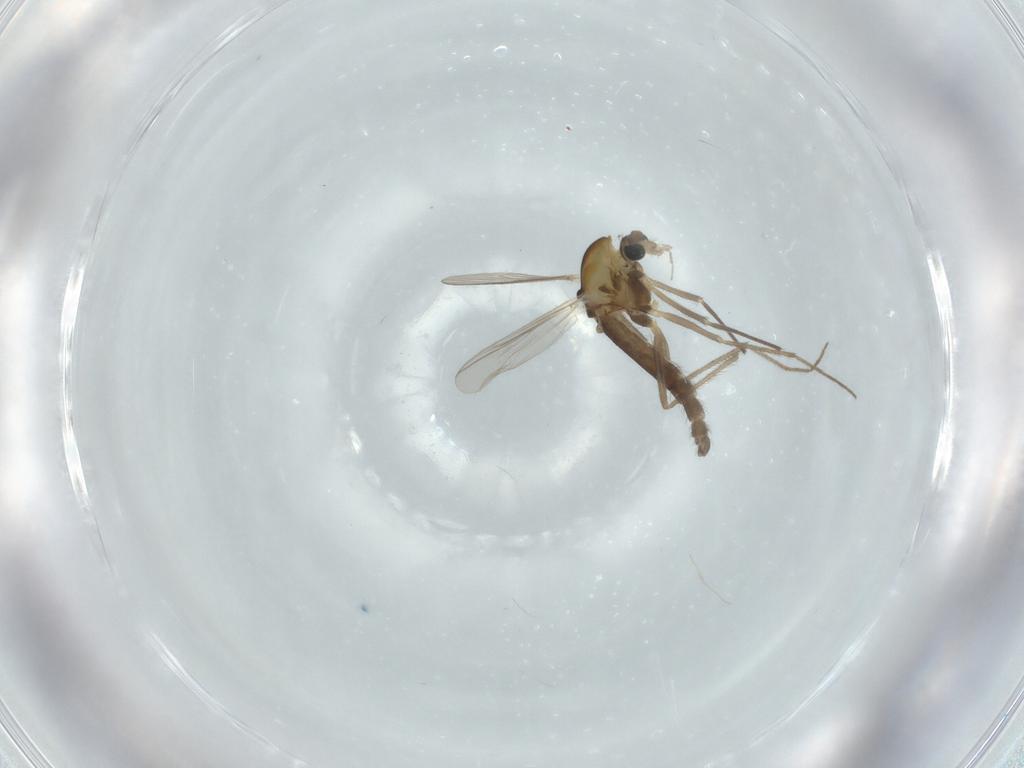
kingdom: Animalia
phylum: Arthropoda
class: Insecta
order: Diptera
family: Chironomidae
